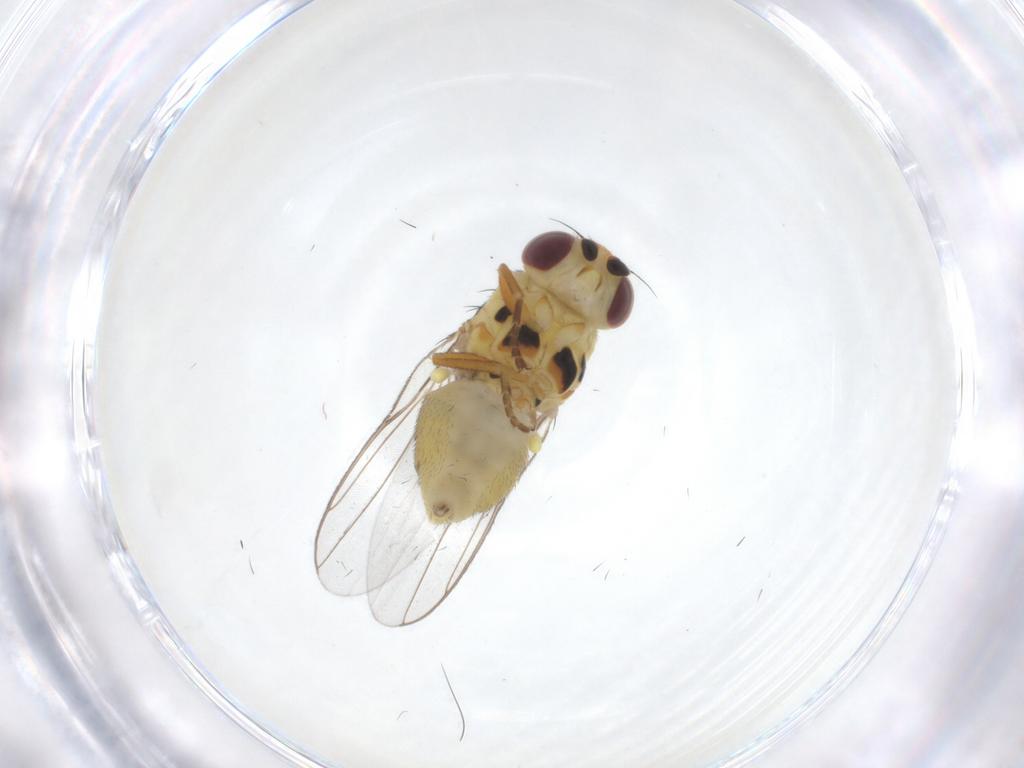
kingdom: Animalia
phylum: Arthropoda
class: Insecta
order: Diptera
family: Chloropidae
